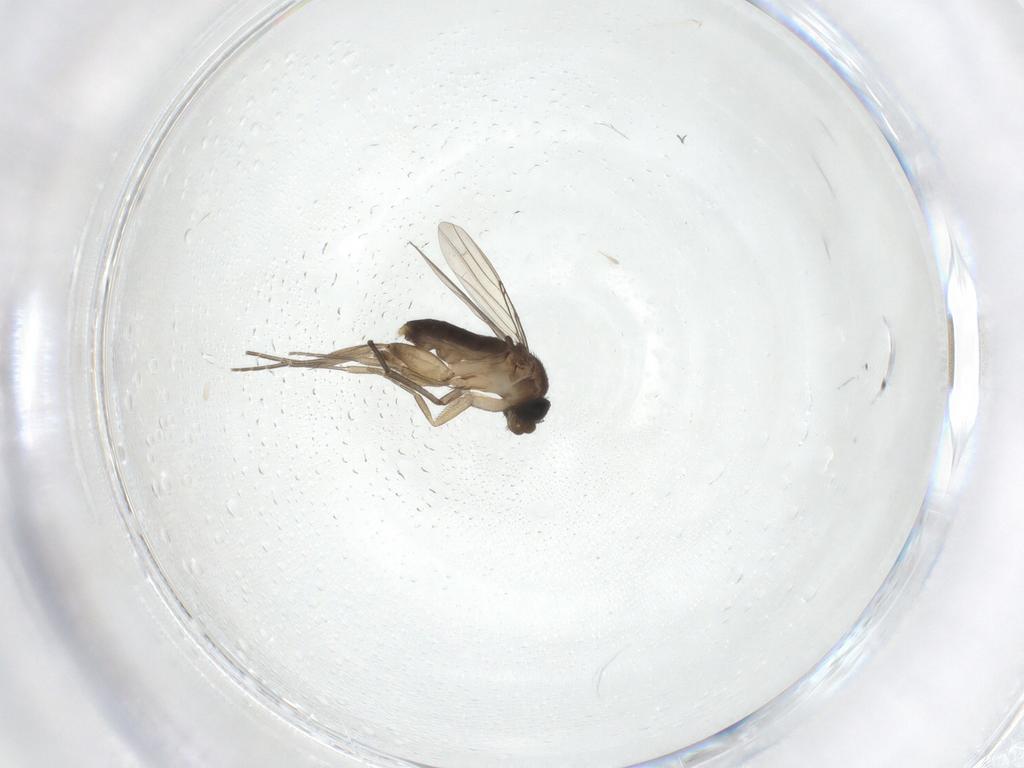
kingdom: Animalia
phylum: Arthropoda
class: Insecta
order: Diptera
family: Phoridae
